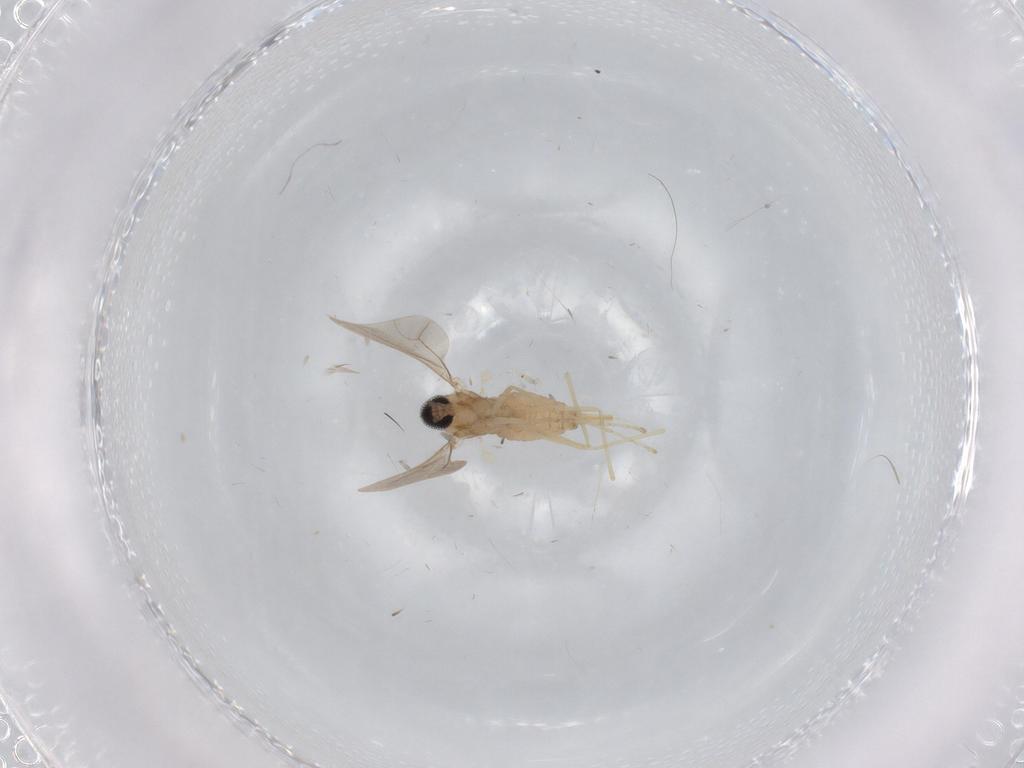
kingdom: Animalia
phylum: Arthropoda
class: Insecta
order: Diptera
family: Cecidomyiidae
